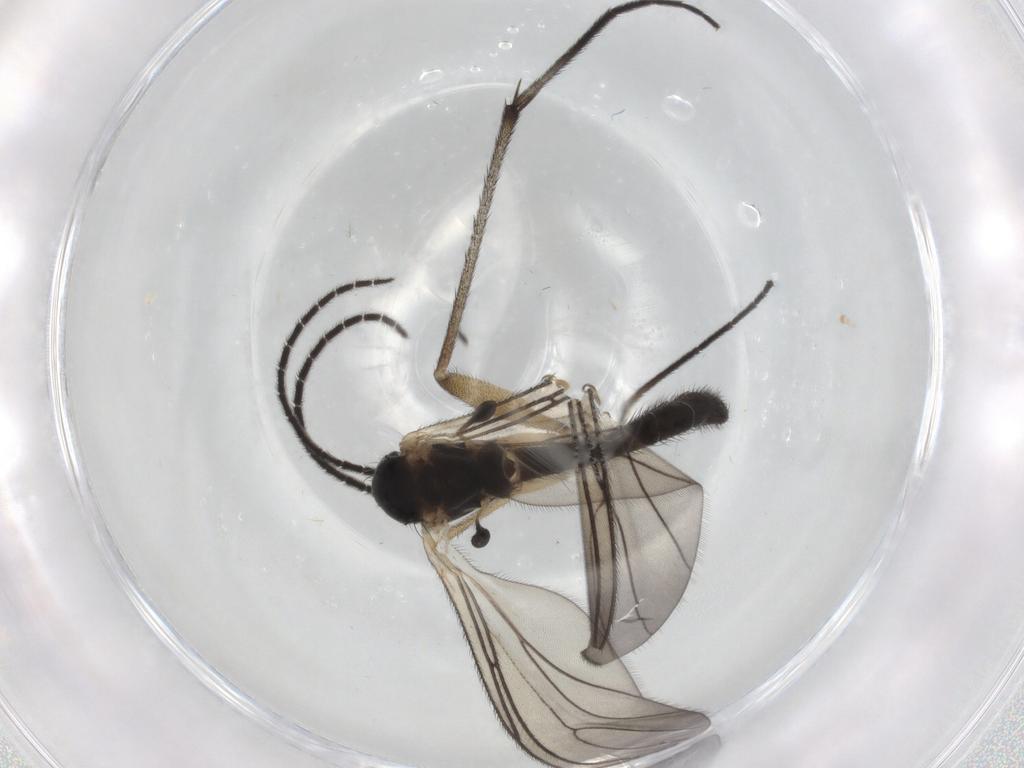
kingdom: Animalia
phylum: Arthropoda
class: Insecta
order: Diptera
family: Sciaridae
